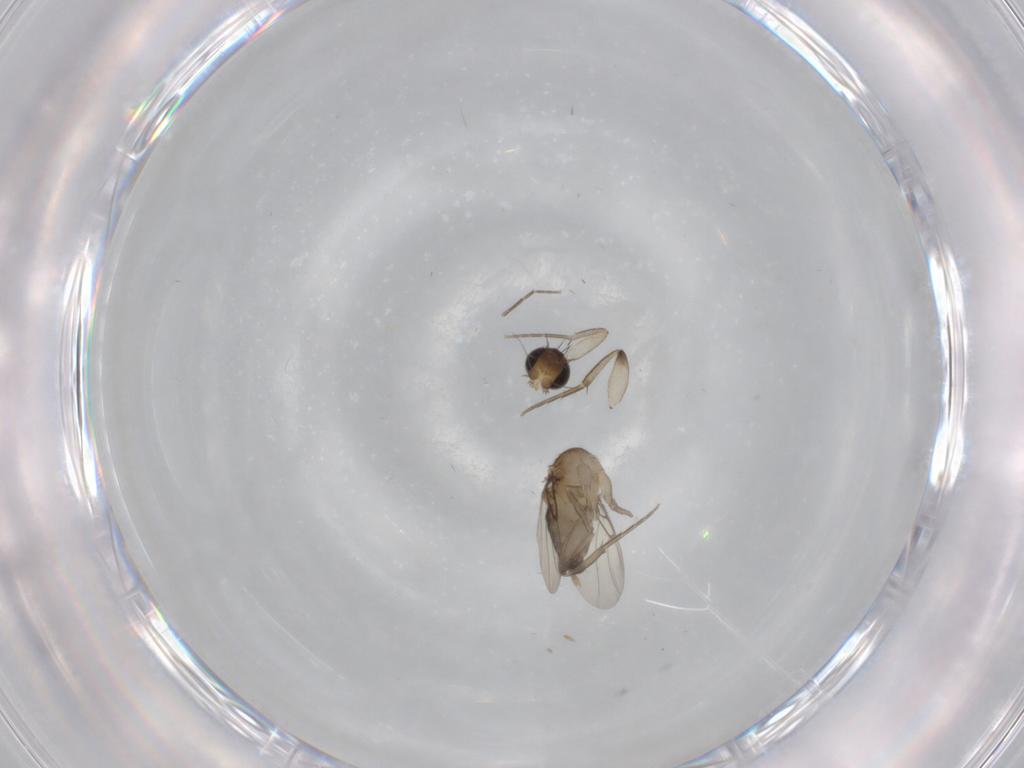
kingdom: Animalia
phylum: Arthropoda
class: Insecta
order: Diptera
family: Phoridae
